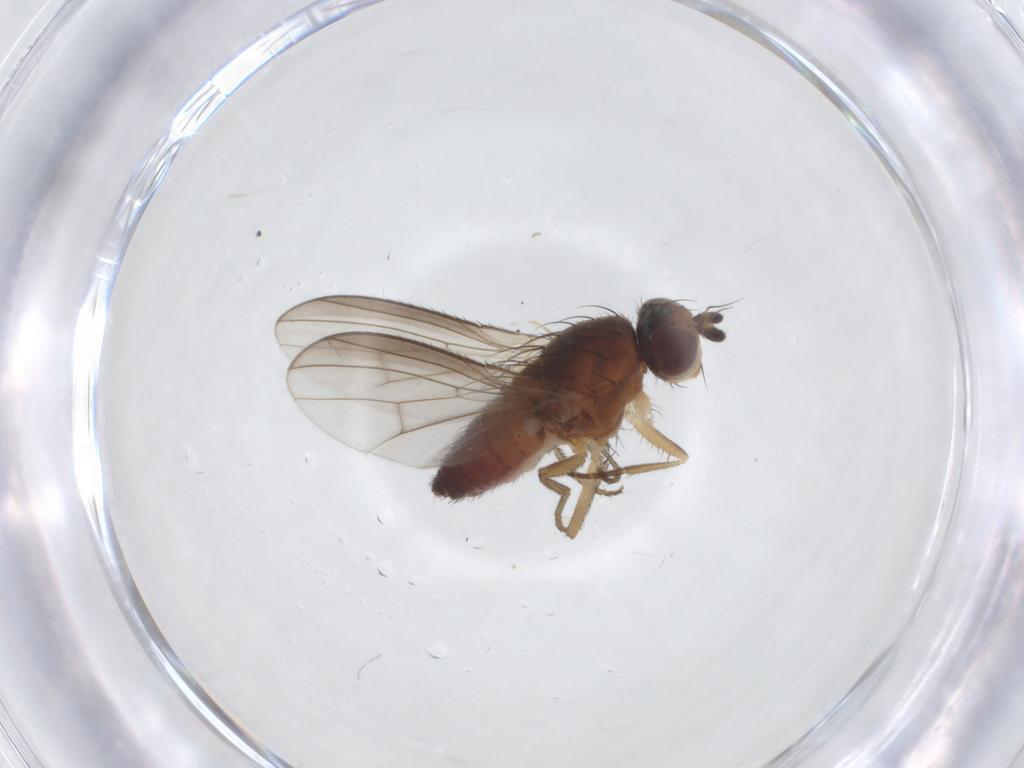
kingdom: Animalia
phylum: Arthropoda
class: Insecta
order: Diptera
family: Heleomyzidae
